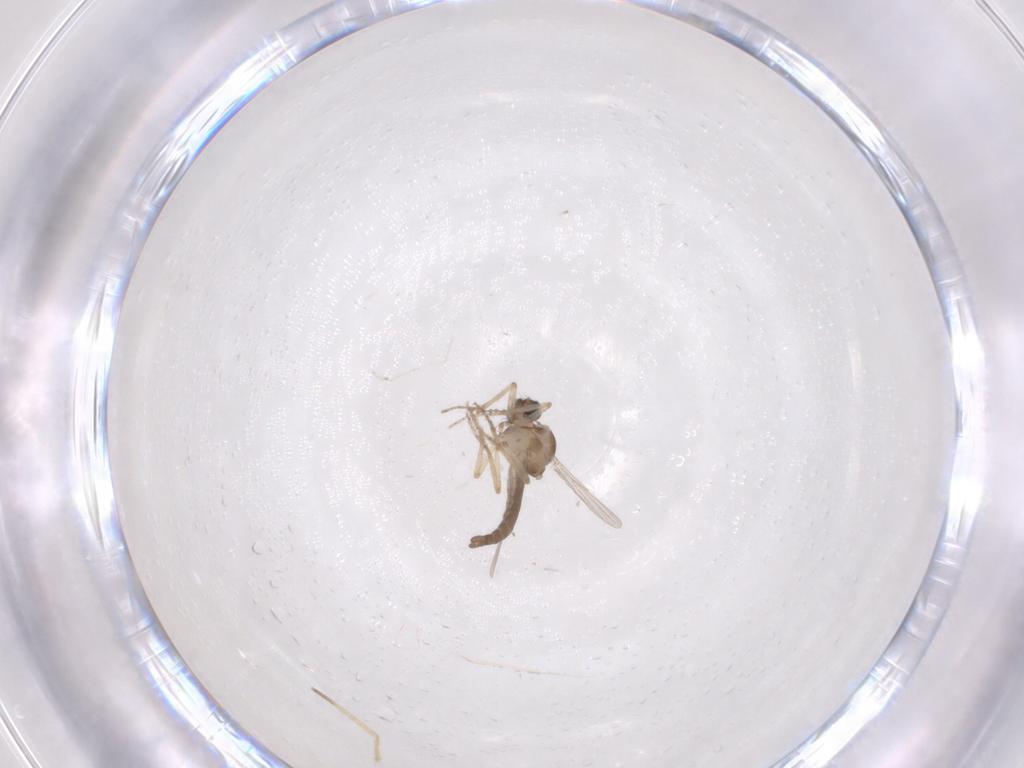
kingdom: Animalia
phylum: Arthropoda
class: Insecta
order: Diptera
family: Ceratopogonidae
